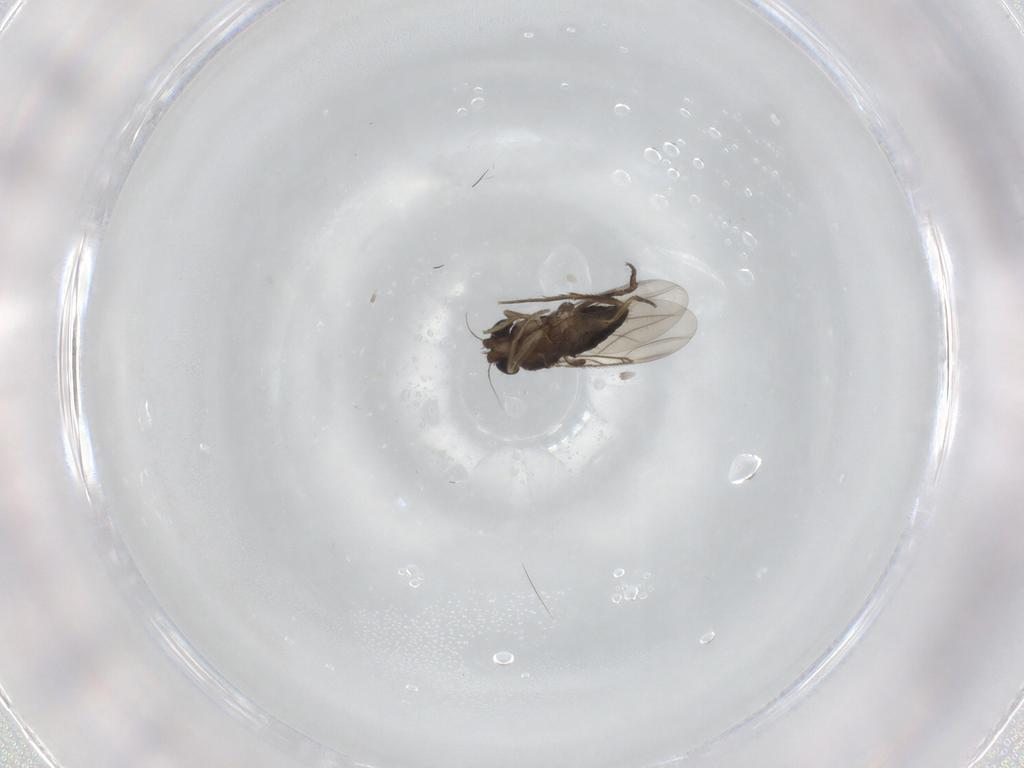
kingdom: Animalia
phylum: Arthropoda
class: Insecta
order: Diptera
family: Phoridae
